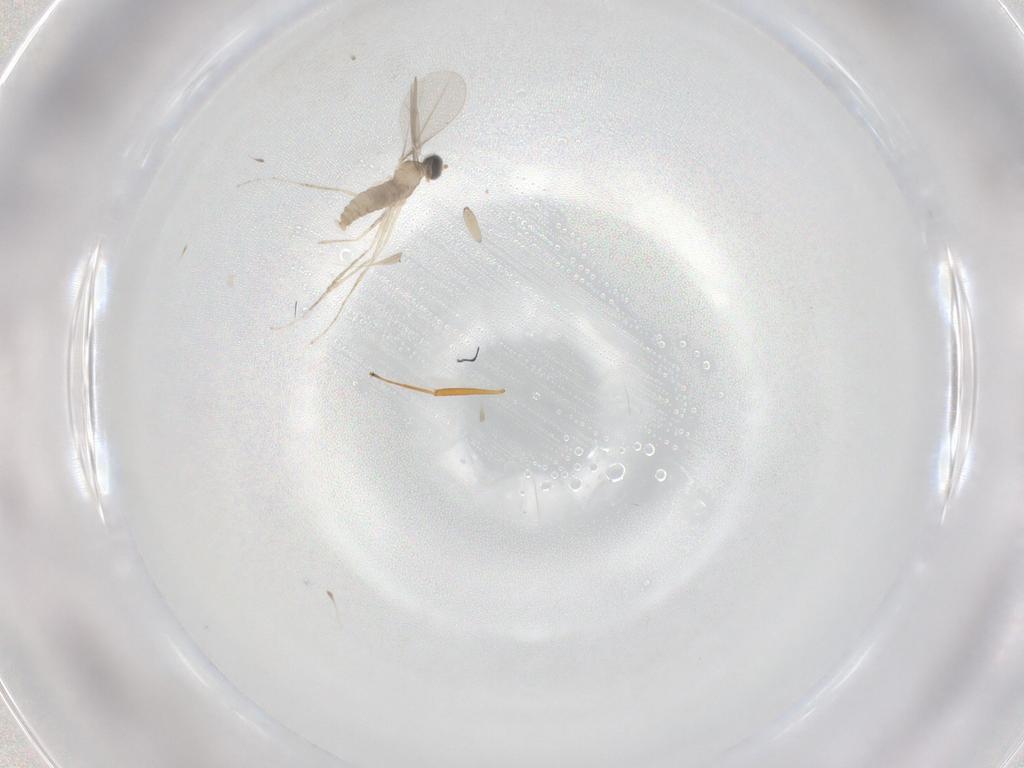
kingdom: Animalia
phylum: Arthropoda
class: Insecta
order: Diptera
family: Cecidomyiidae
